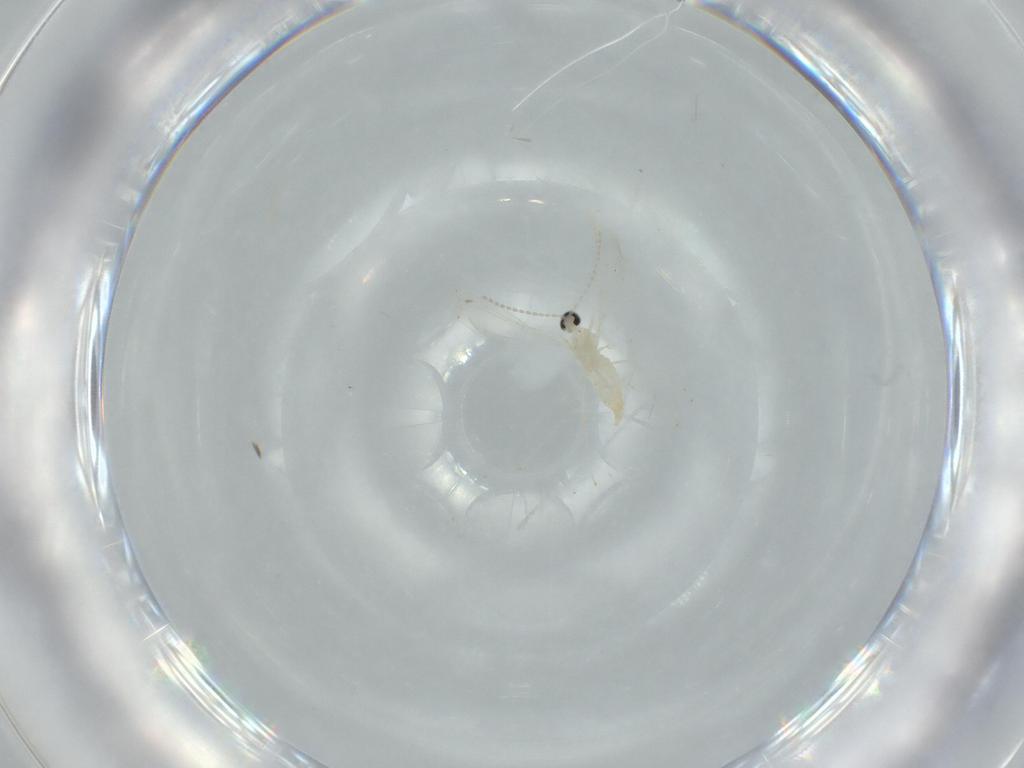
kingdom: Animalia
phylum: Arthropoda
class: Insecta
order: Diptera
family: Cecidomyiidae
